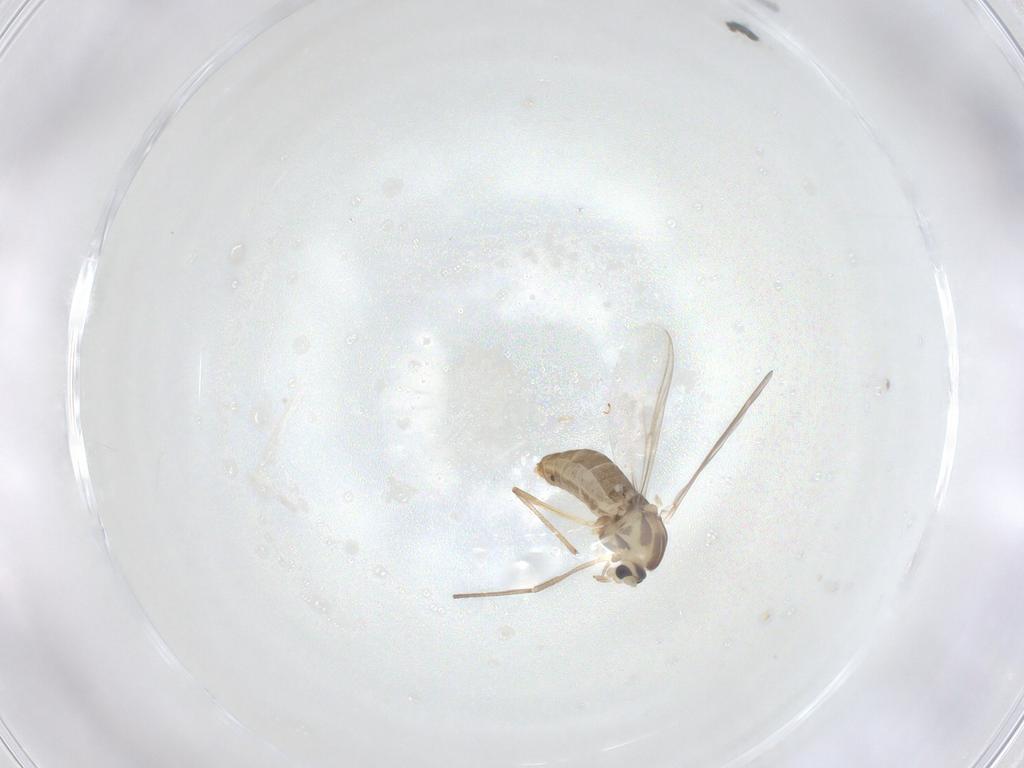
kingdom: Animalia
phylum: Arthropoda
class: Insecta
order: Diptera
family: Chironomidae
